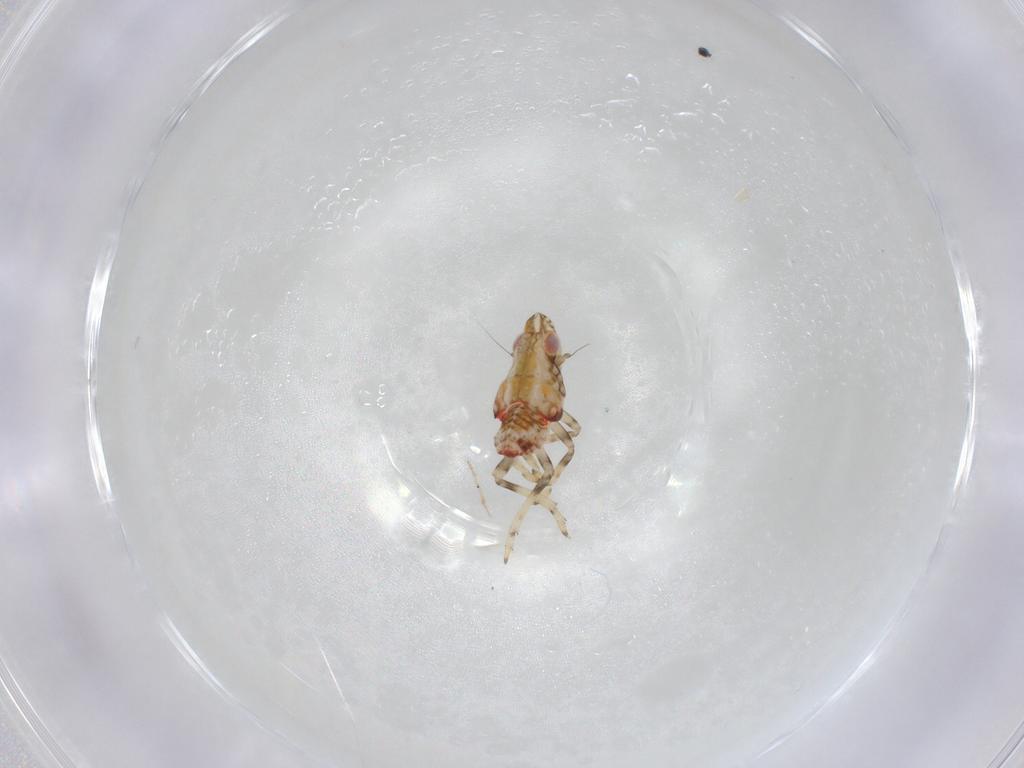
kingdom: Animalia
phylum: Arthropoda
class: Insecta
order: Hemiptera
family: Tropiduchidae
